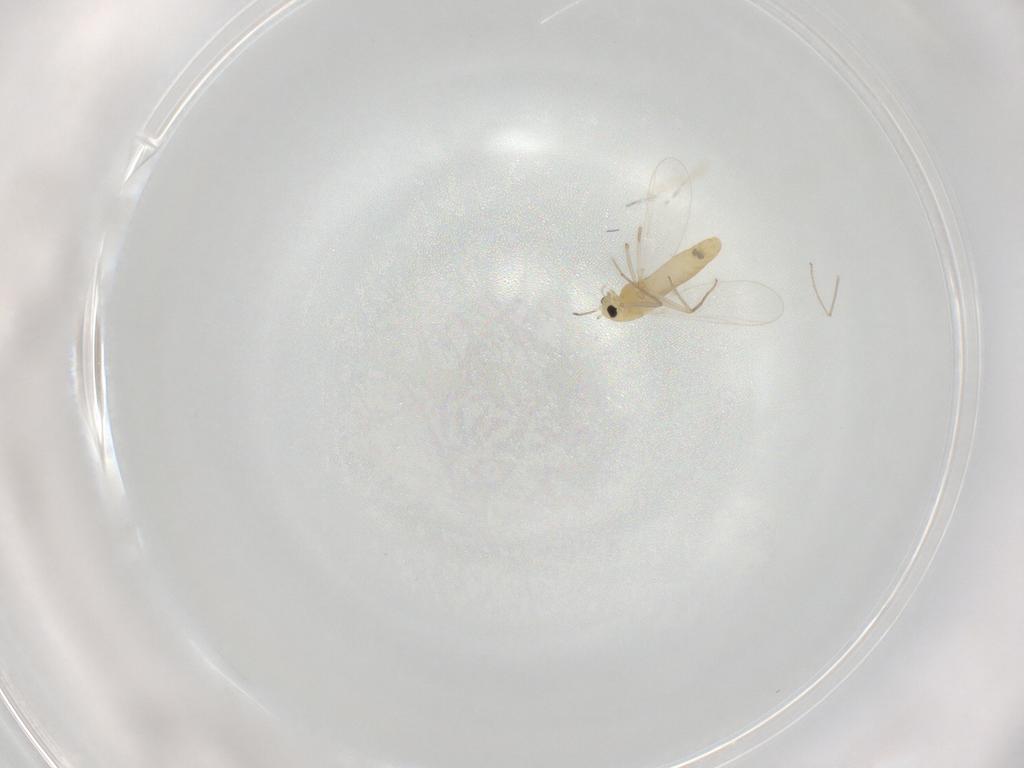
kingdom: Animalia
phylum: Arthropoda
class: Insecta
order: Diptera
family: Chironomidae
